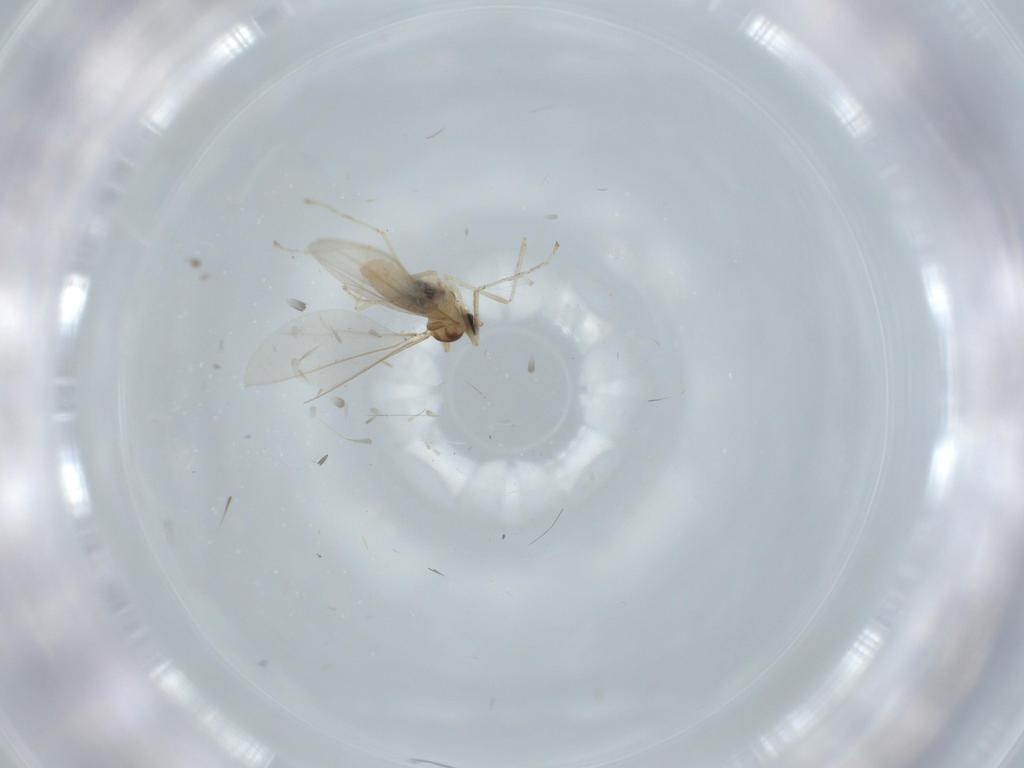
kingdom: Animalia
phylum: Arthropoda
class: Insecta
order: Diptera
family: Cecidomyiidae
